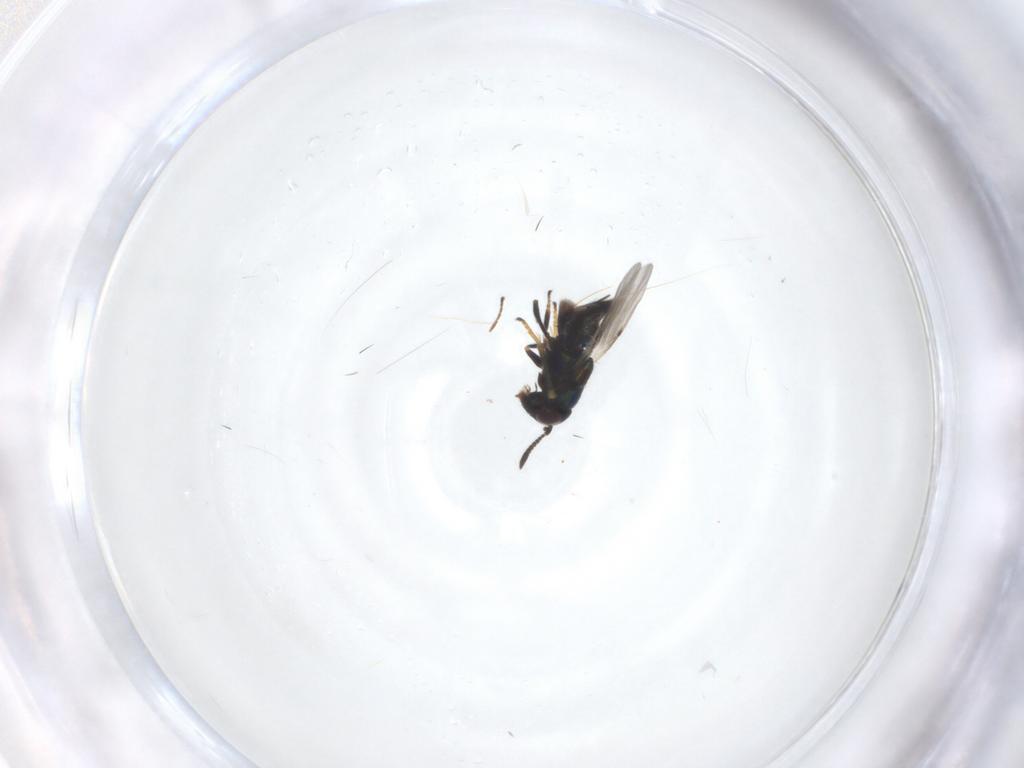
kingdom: Animalia
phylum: Arthropoda
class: Insecta
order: Hymenoptera
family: Encyrtidae
